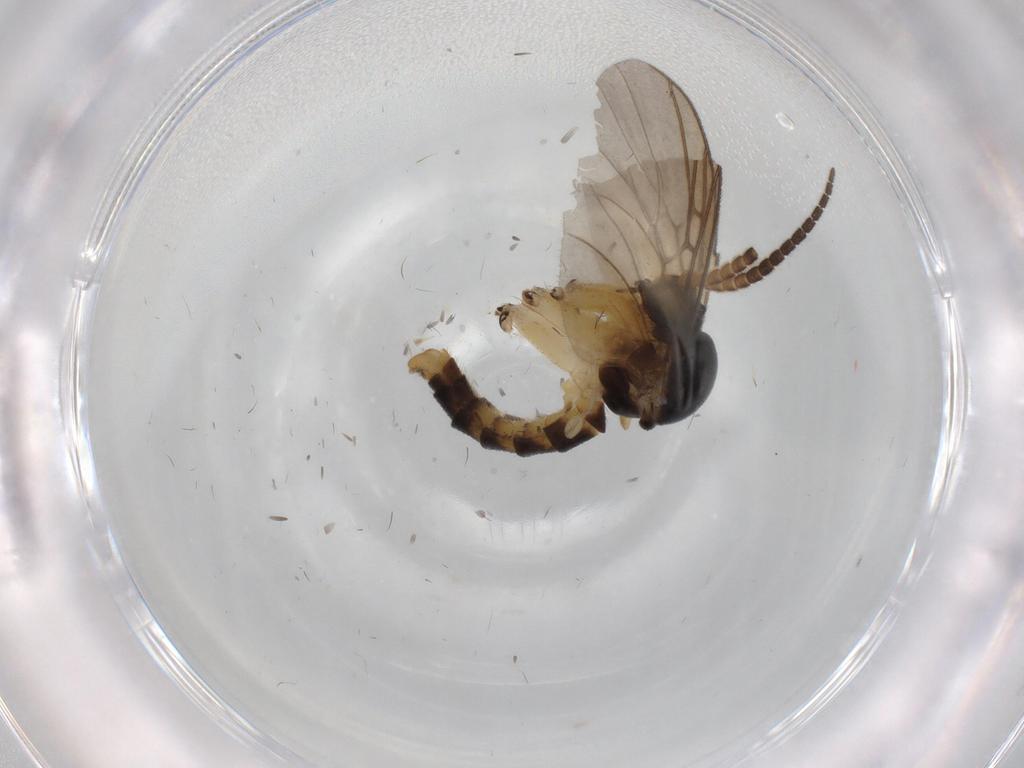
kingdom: Animalia
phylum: Arthropoda
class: Insecta
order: Diptera
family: Mycetophilidae
